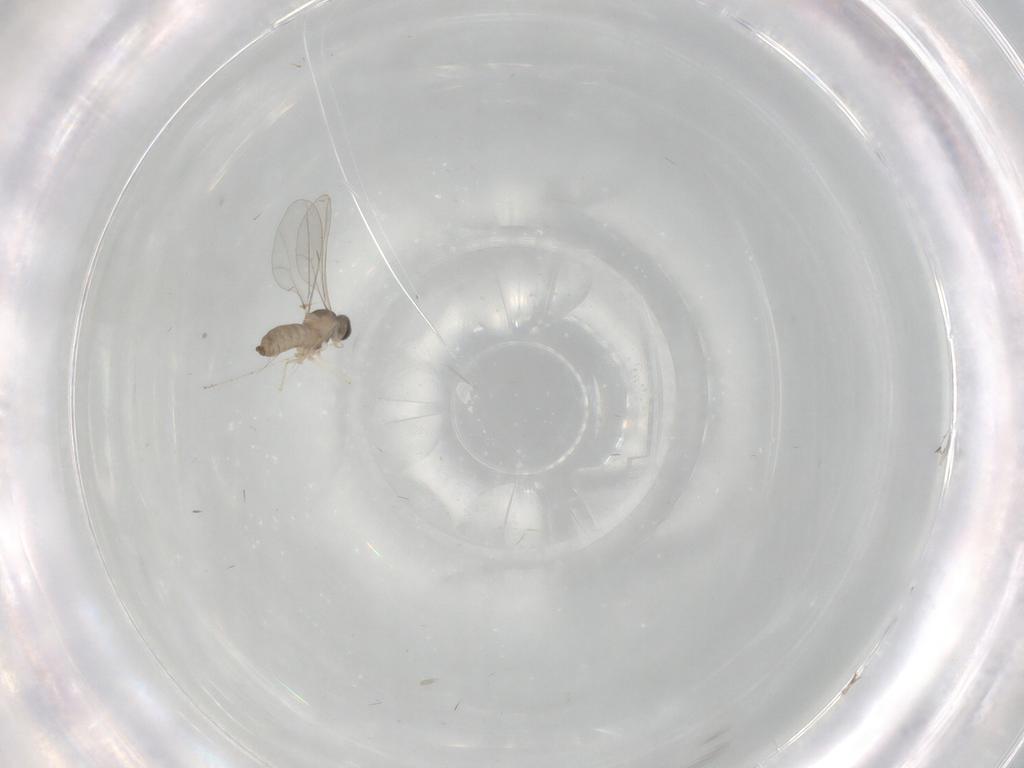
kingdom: Animalia
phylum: Arthropoda
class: Insecta
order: Diptera
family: Cecidomyiidae
